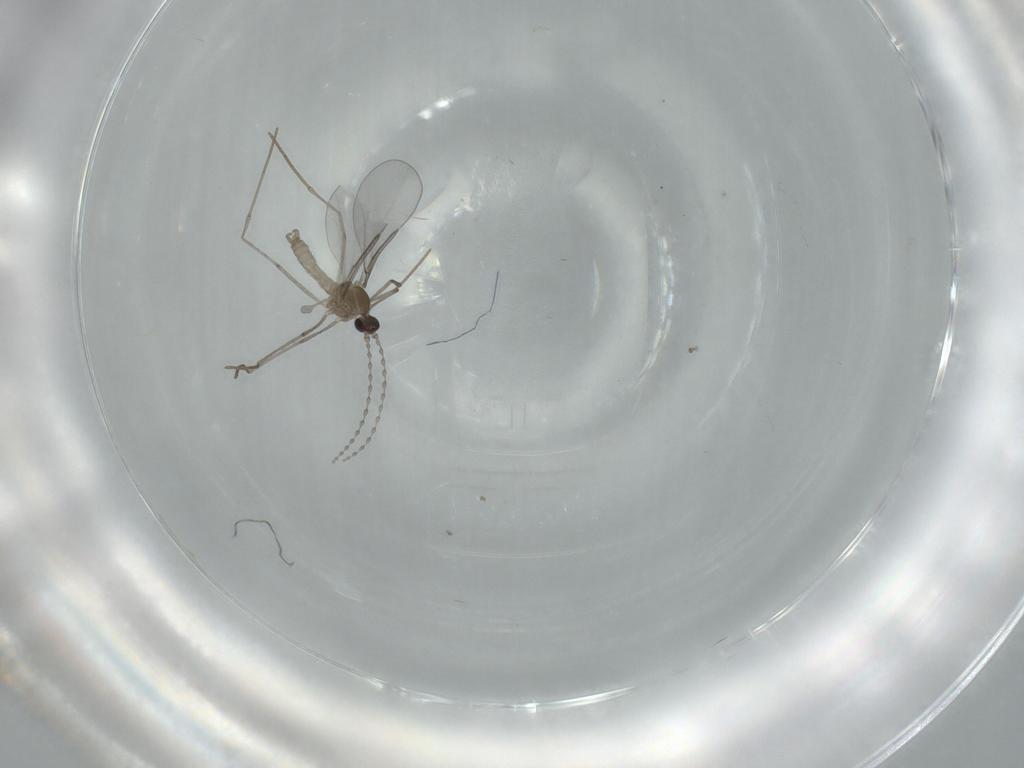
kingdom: Animalia
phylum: Arthropoda
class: Insecta
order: Diptera
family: Cecidomyiidae
